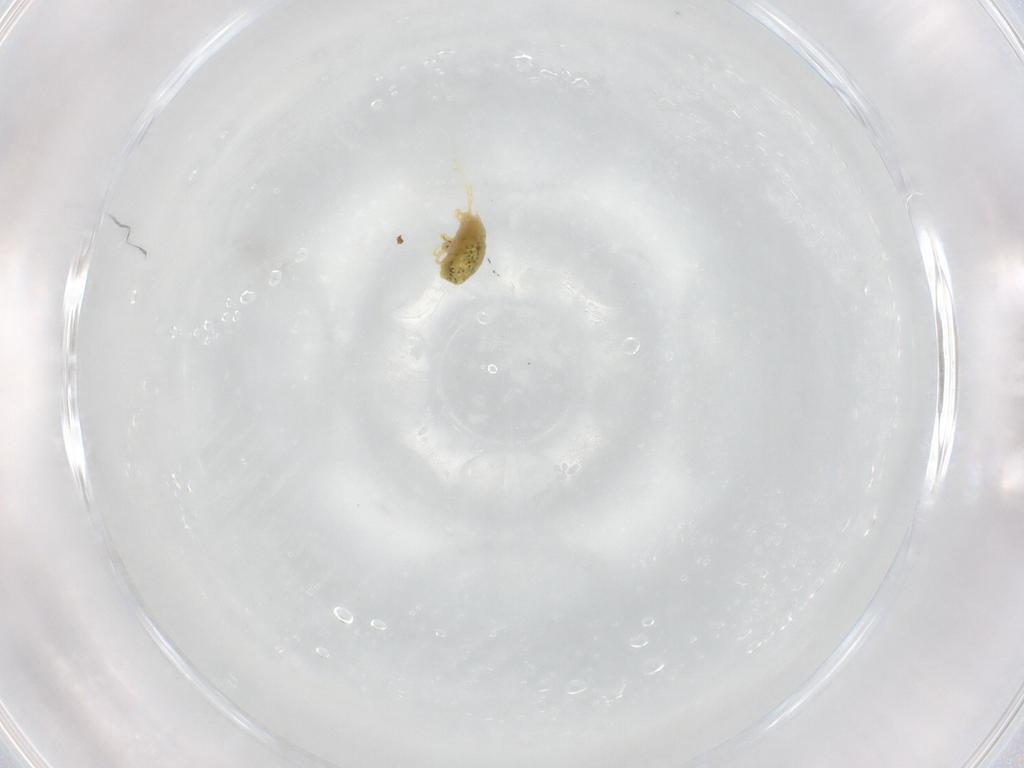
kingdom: Animalia
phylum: Arthropoda
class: Arachnida
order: Trombidiformes
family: Tetranychidae
